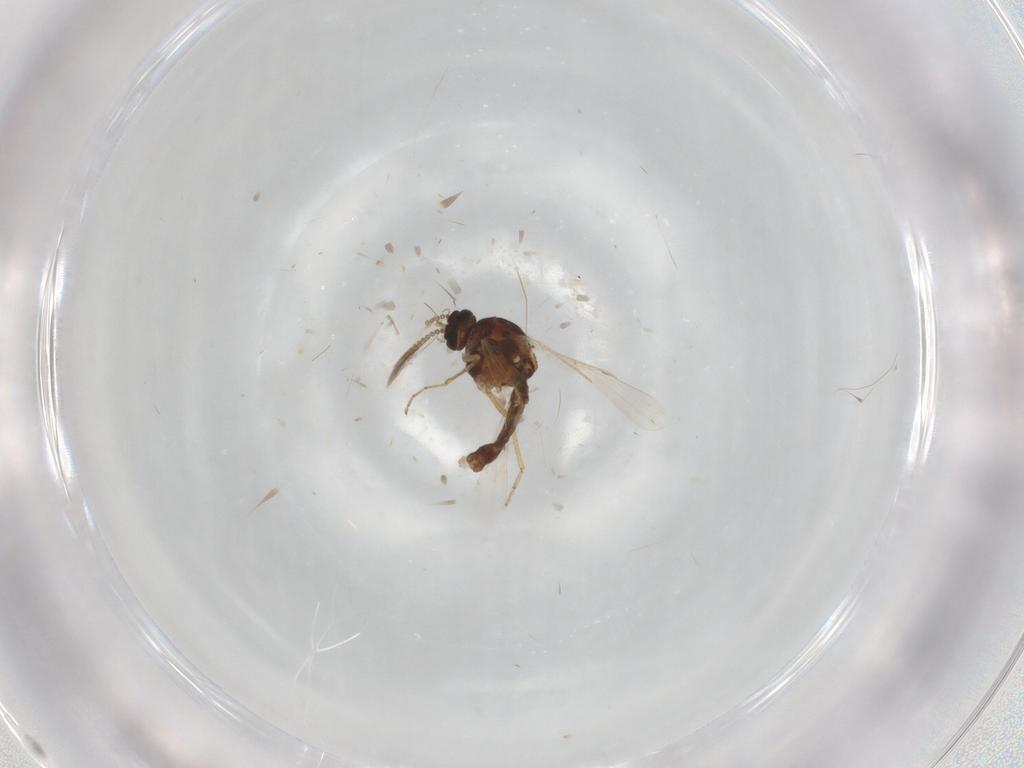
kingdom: Animalia
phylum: Arthropoda
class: Insecta
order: Diptera
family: Ceratopogonidae
